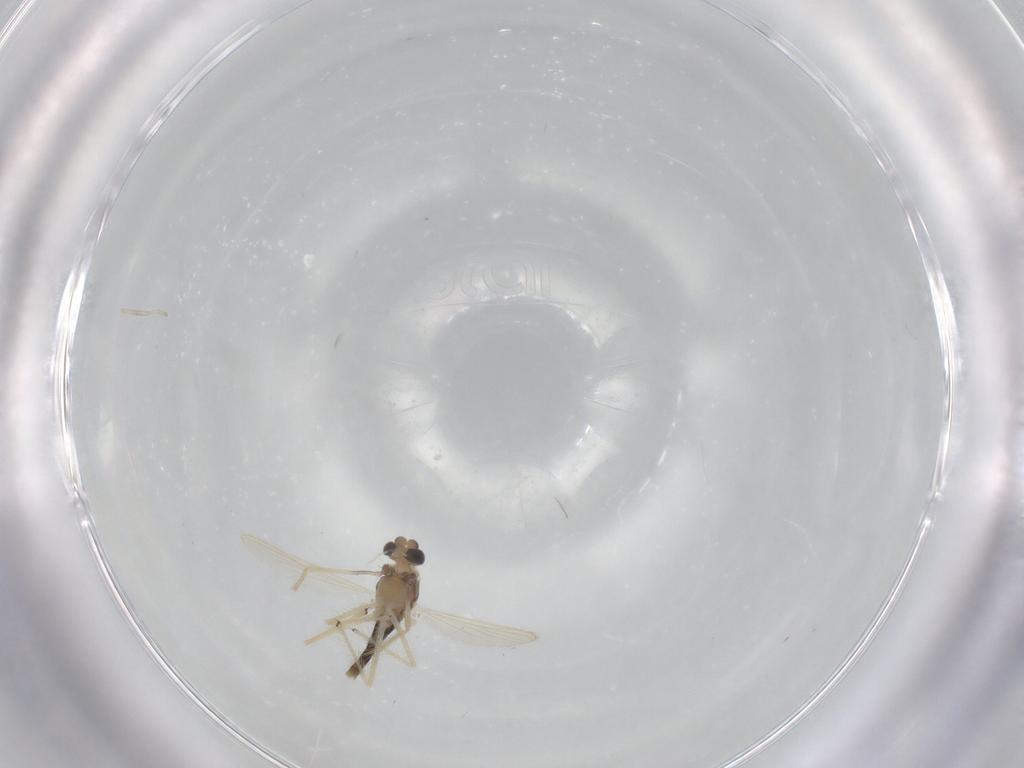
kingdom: Animalia
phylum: Arthropoda
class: Insecta
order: Diptera
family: Chironomidae
